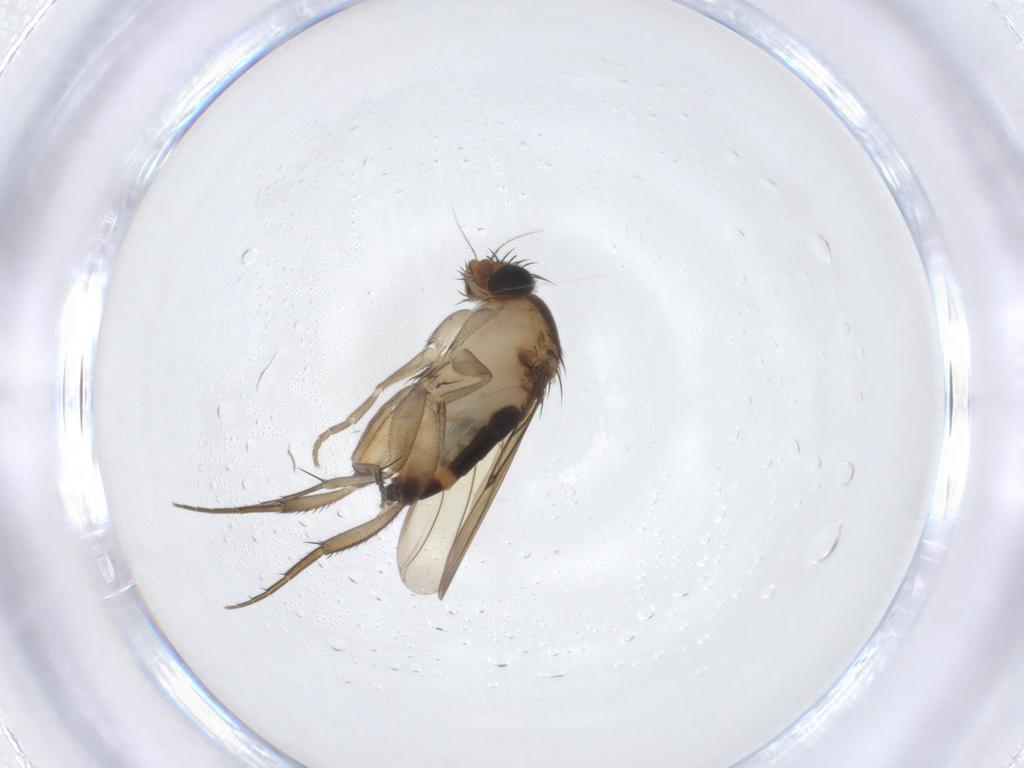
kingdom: Animalia
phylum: Arthropoda
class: Insecta
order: Diptera
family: Phoridae
